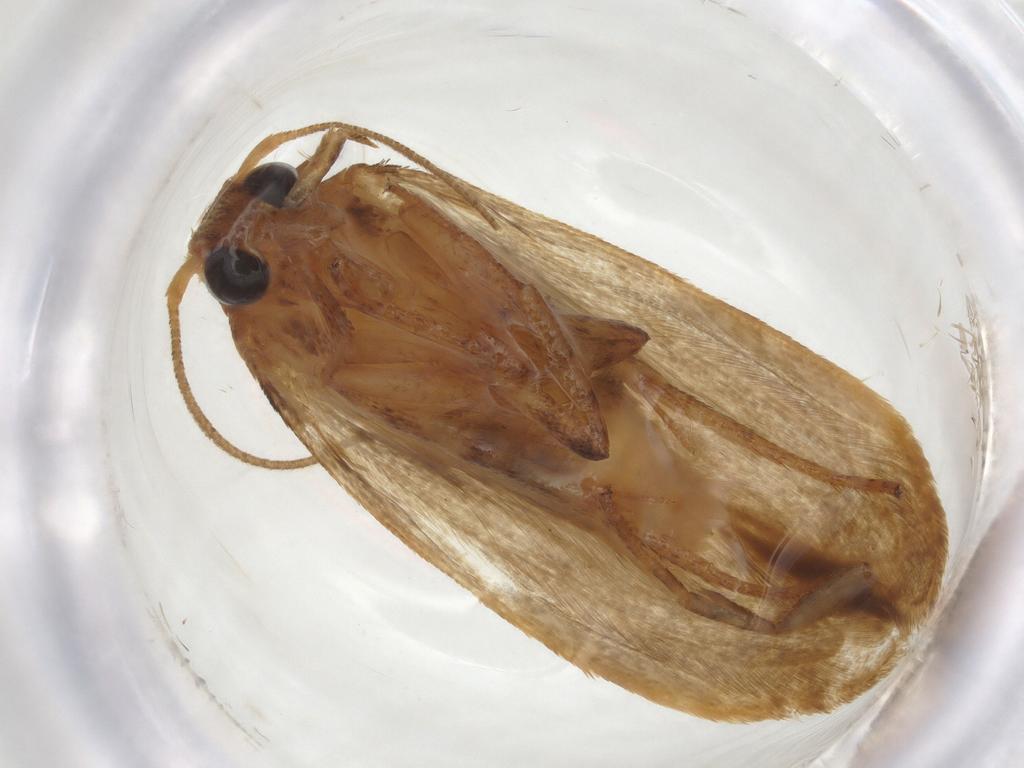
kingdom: Animalia
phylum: Arthropoda
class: Insecta
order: Lepidoptera
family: Blastobasidae
